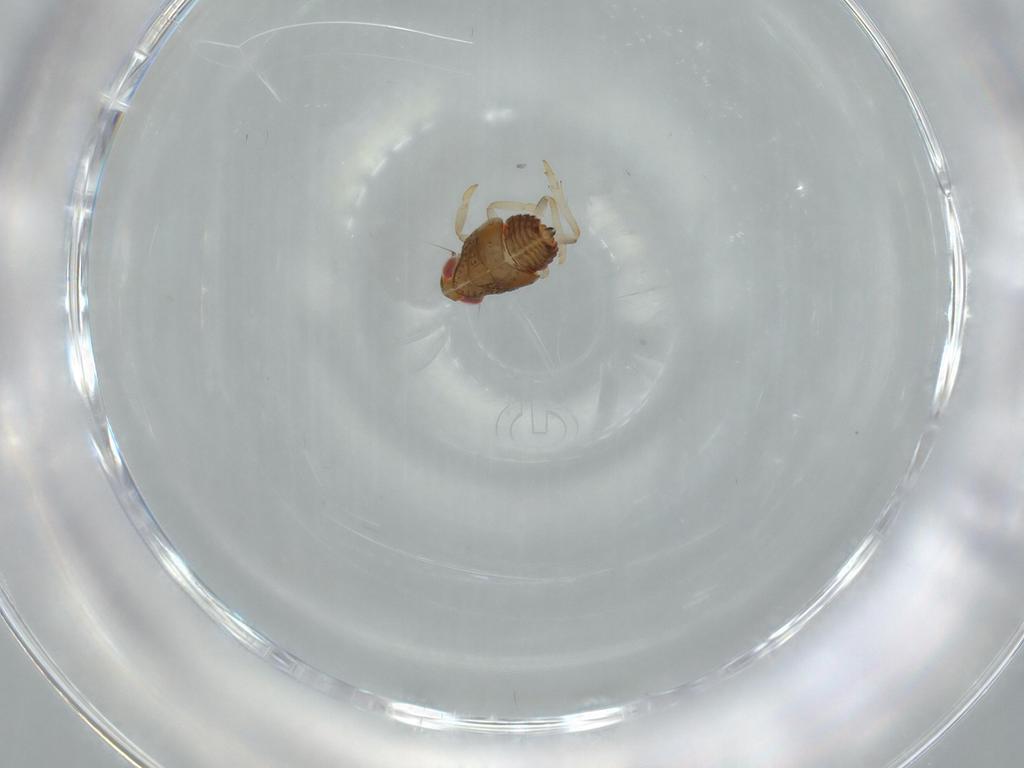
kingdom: Animalia
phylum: Arthropoda
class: Insecta
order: Hemiptera
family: Issidae
